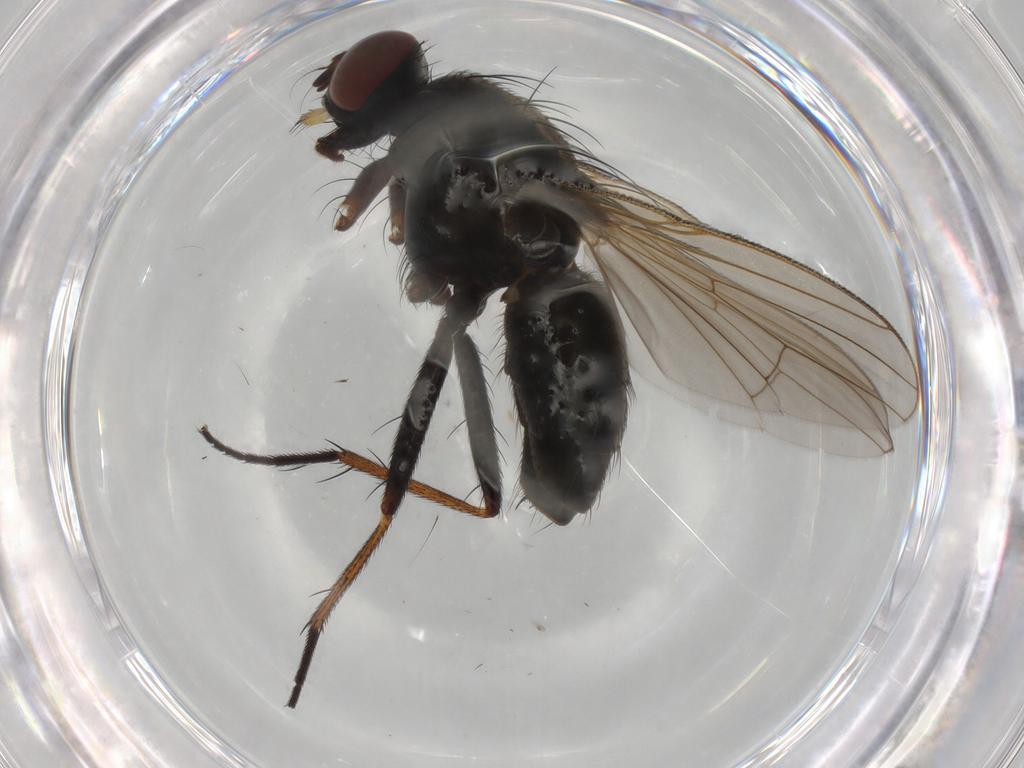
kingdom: Animalia
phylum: Arthropoda
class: Insecta
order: Diptera
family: Muscidae
